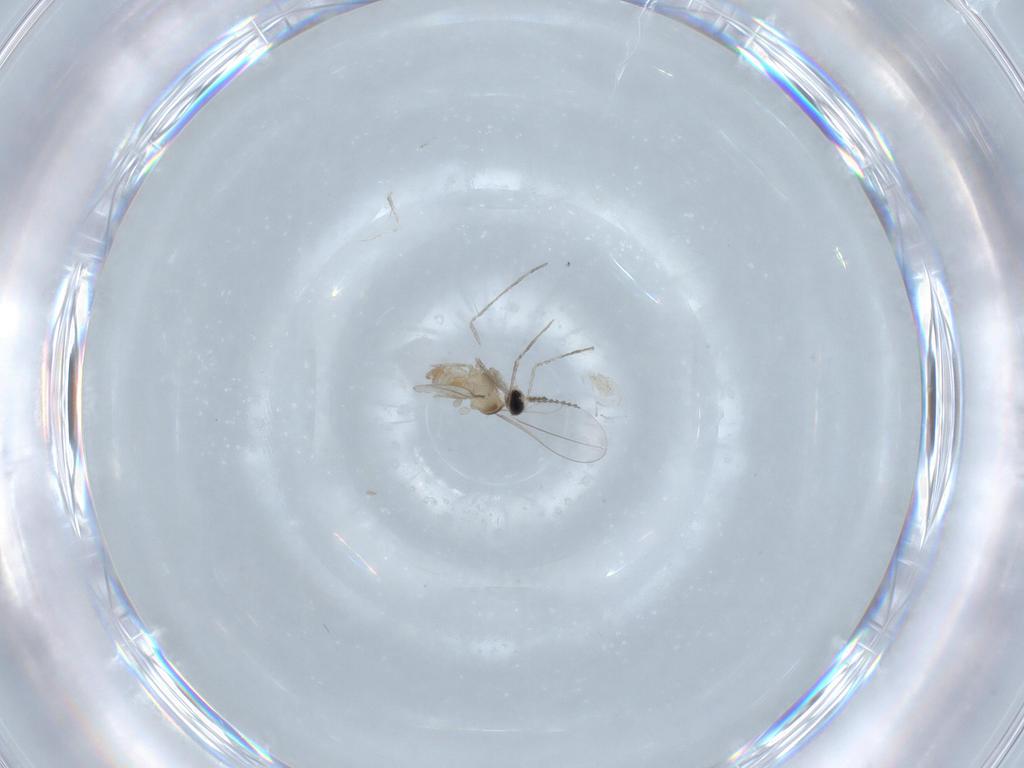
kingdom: Animalia
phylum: Arthropoda
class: Insecta
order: Diptera
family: Cecidomyiidae
